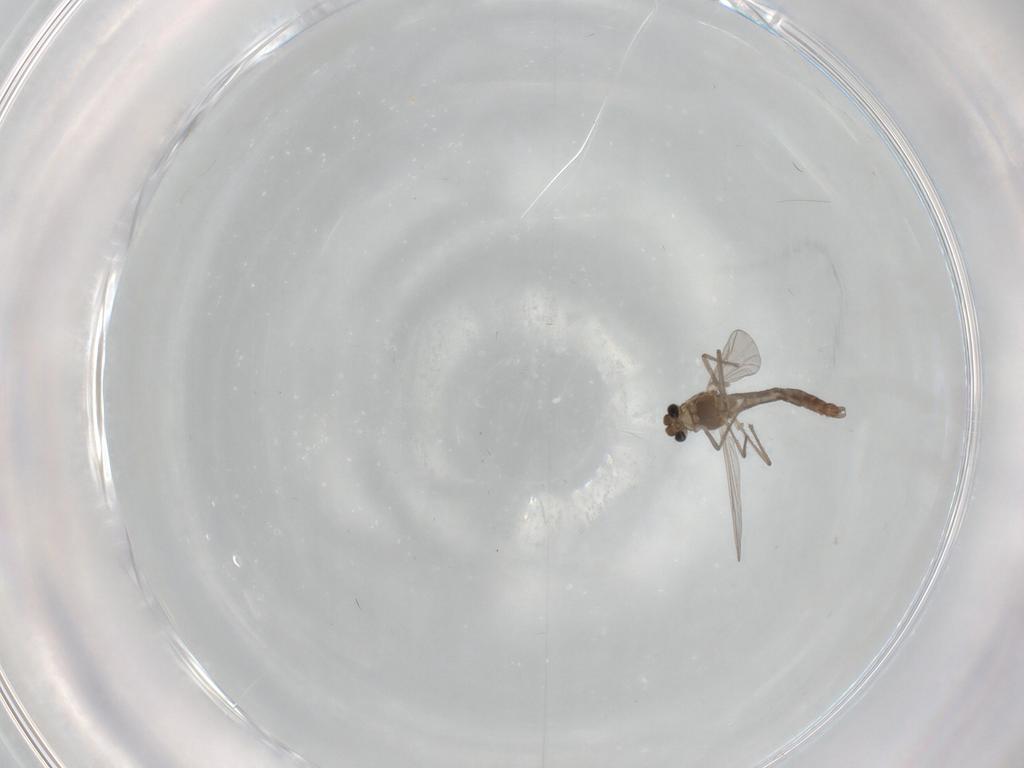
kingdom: Animalia
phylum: Arthropoda
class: Insecta
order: Diptera
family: Chironomidae
